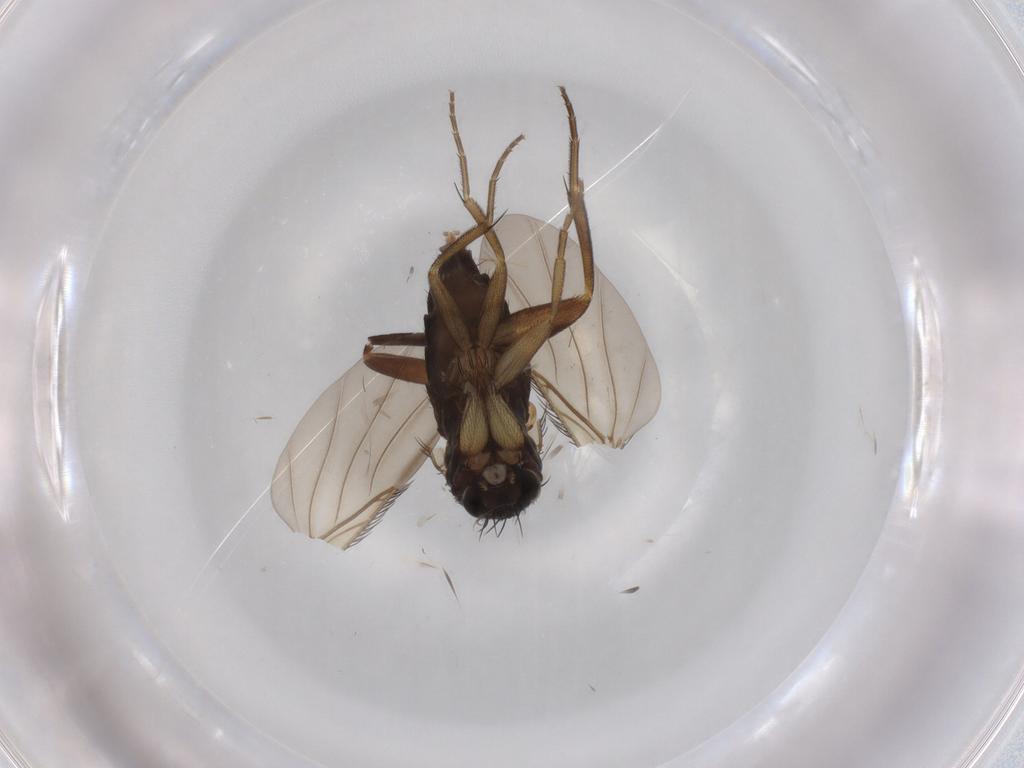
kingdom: Animalia
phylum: Arthropoda
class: Insecta
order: Diptera
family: Phoridae
